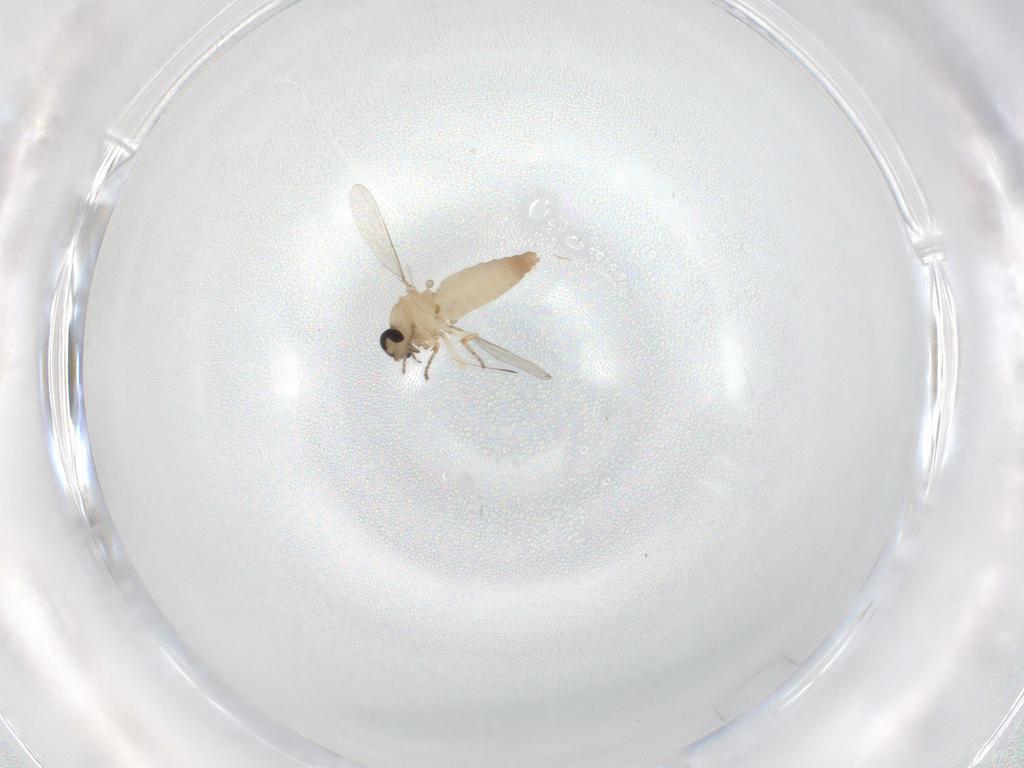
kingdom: Animalia
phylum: Arthropoda
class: Insecta
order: Diptera
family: Ceratopogonidae
